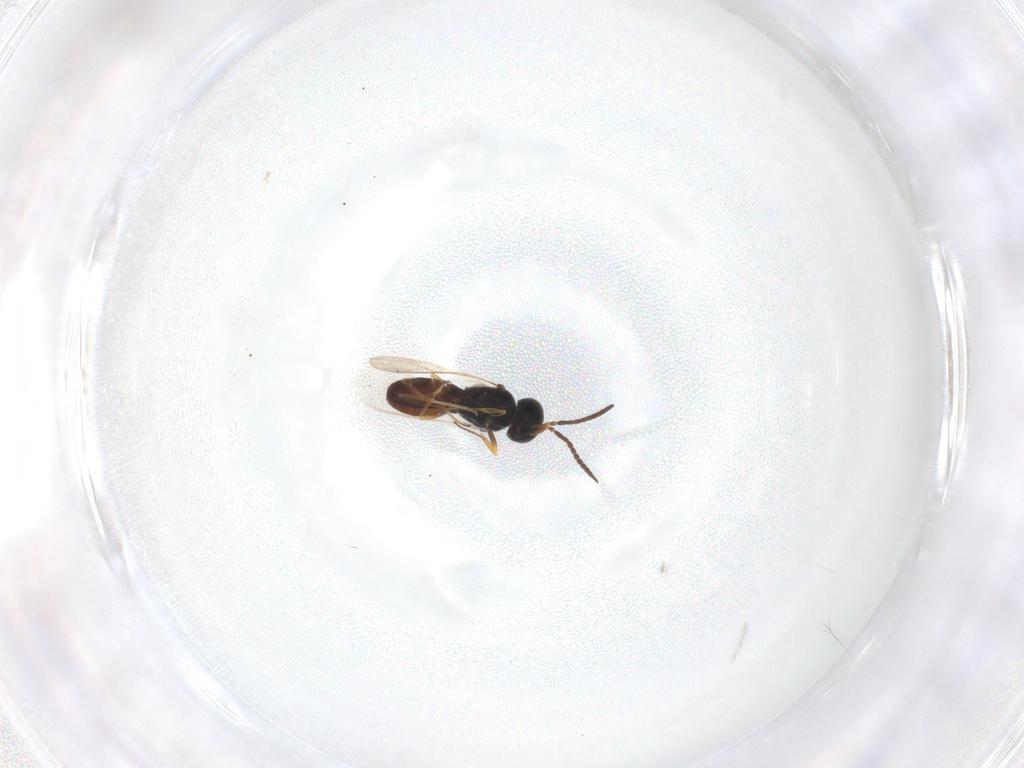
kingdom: Animalia
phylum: Arthropoda
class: Insecta
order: Hymenoptera
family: Scelionidae
